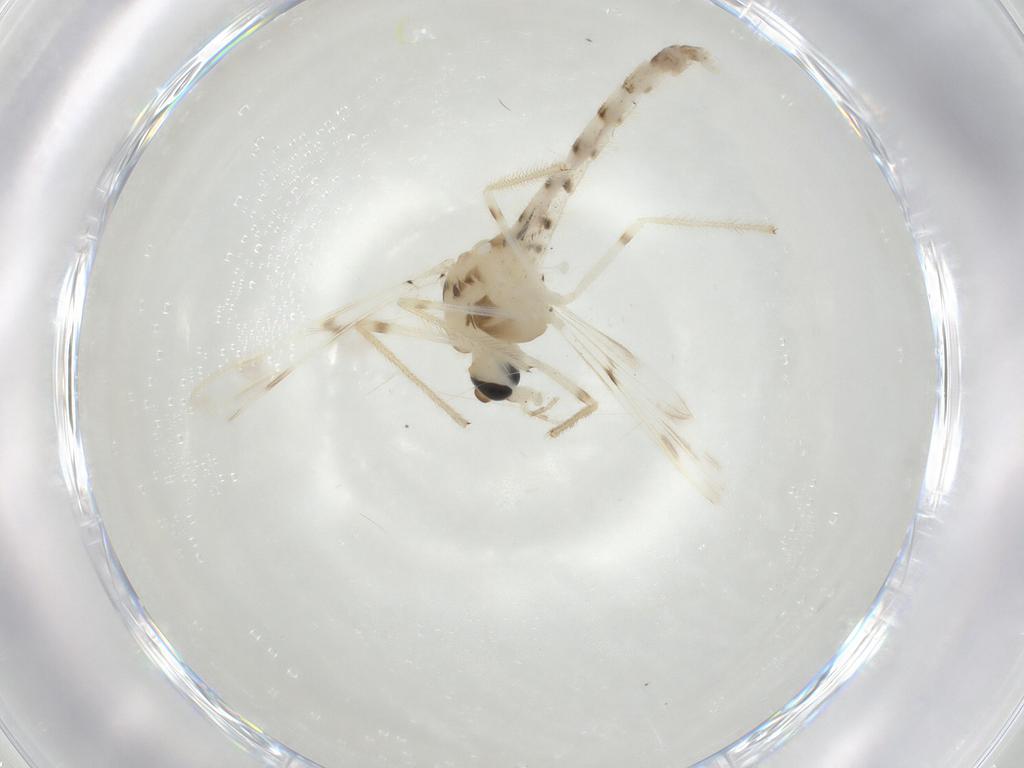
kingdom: Animalia
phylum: Arthropoda
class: Insecta
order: Diptera
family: Chironomidae
